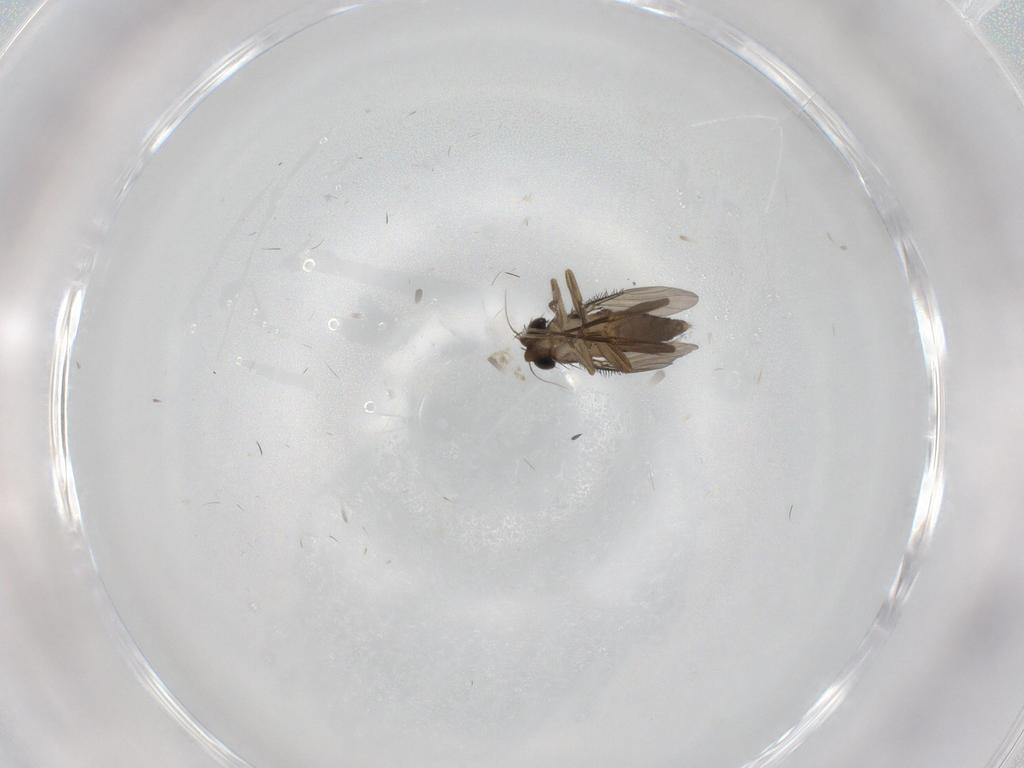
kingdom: Animalia
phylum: Arthropoda
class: Insecta
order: Diptera
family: Phoridae
